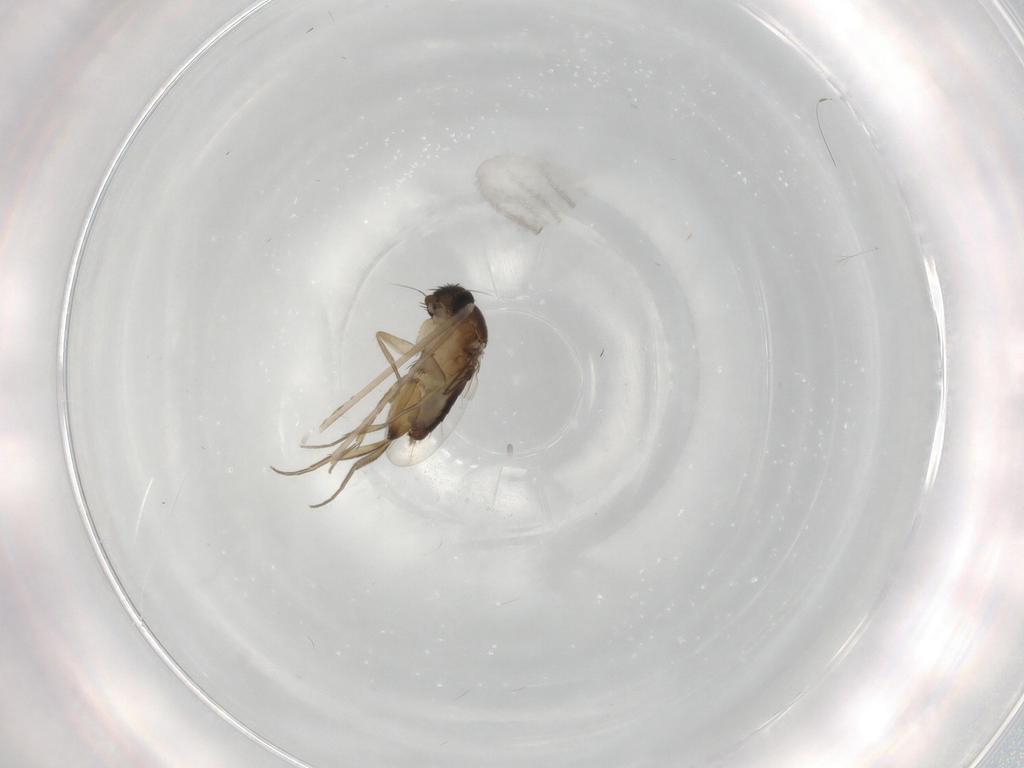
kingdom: Animalia
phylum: Arthropoda
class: Insecta
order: Diptera
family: Phoridae
